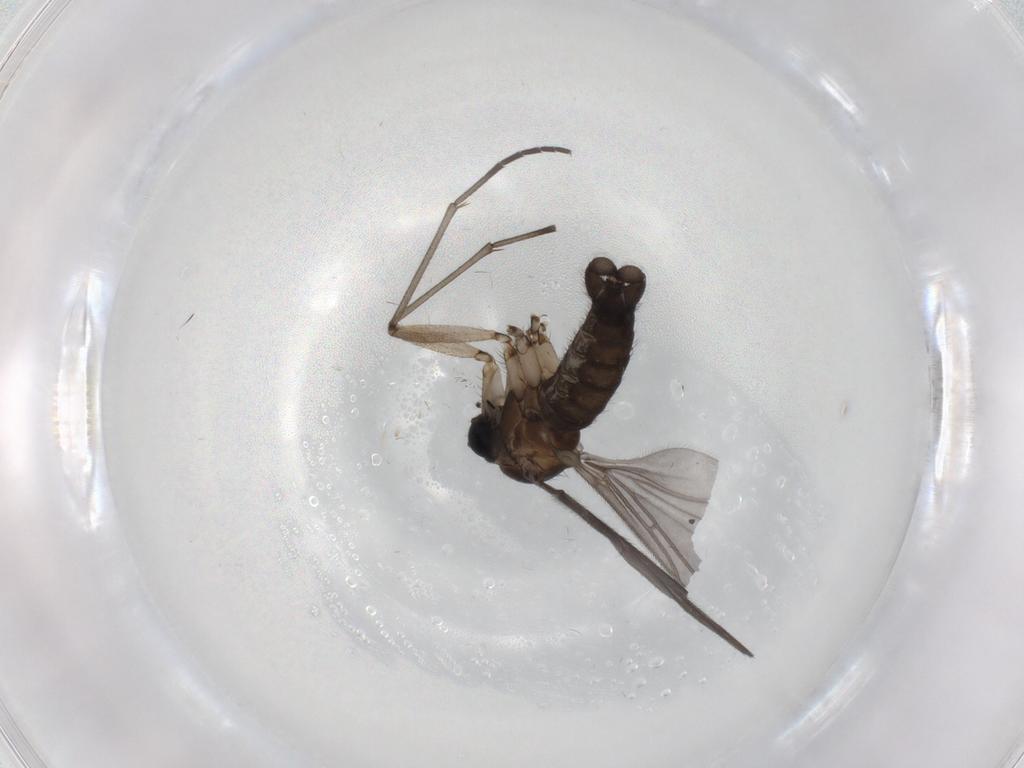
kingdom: Animalia
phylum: Arthropoda
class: Insecta
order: Diptera
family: Sciaridae
